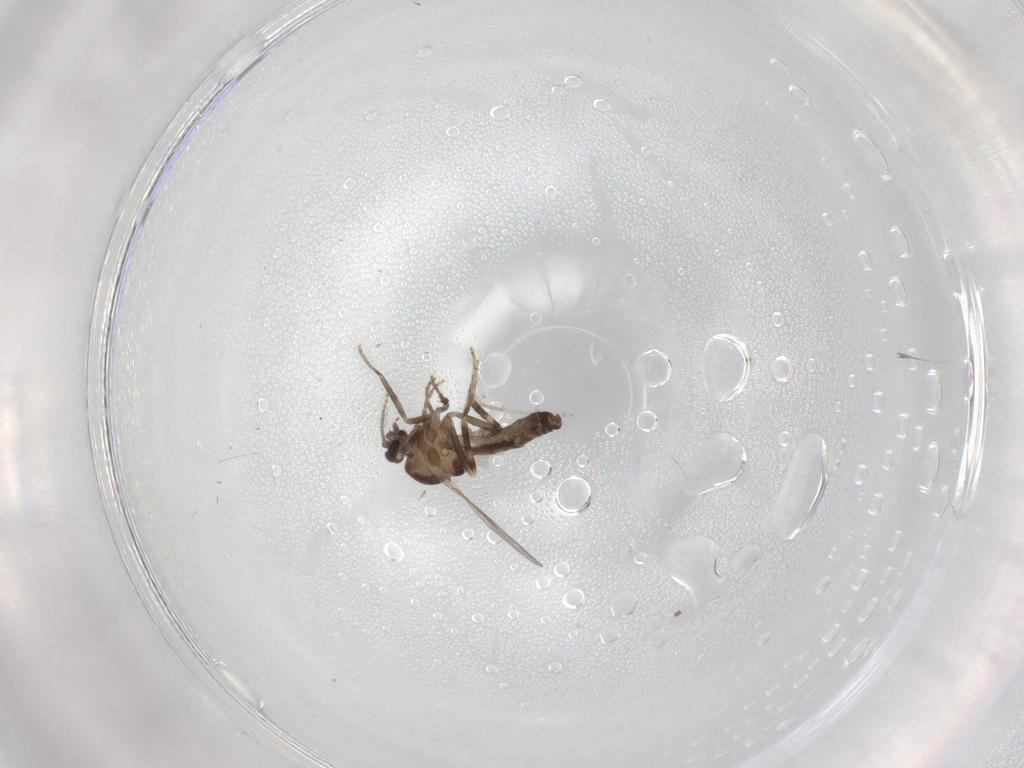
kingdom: Animalia
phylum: Arthropoda
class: Insecta
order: Diptera
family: Ceratopogonidae
